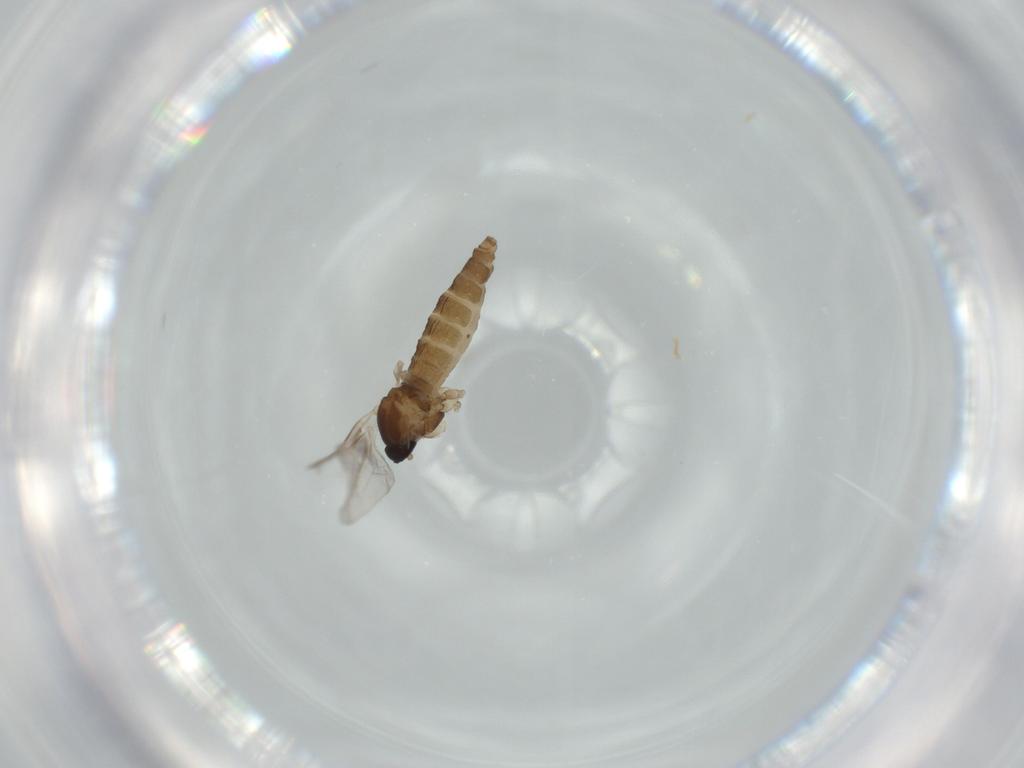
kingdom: Animalia
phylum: Arthropoda
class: Insecta
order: Diptera
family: Cecidomyiidae
